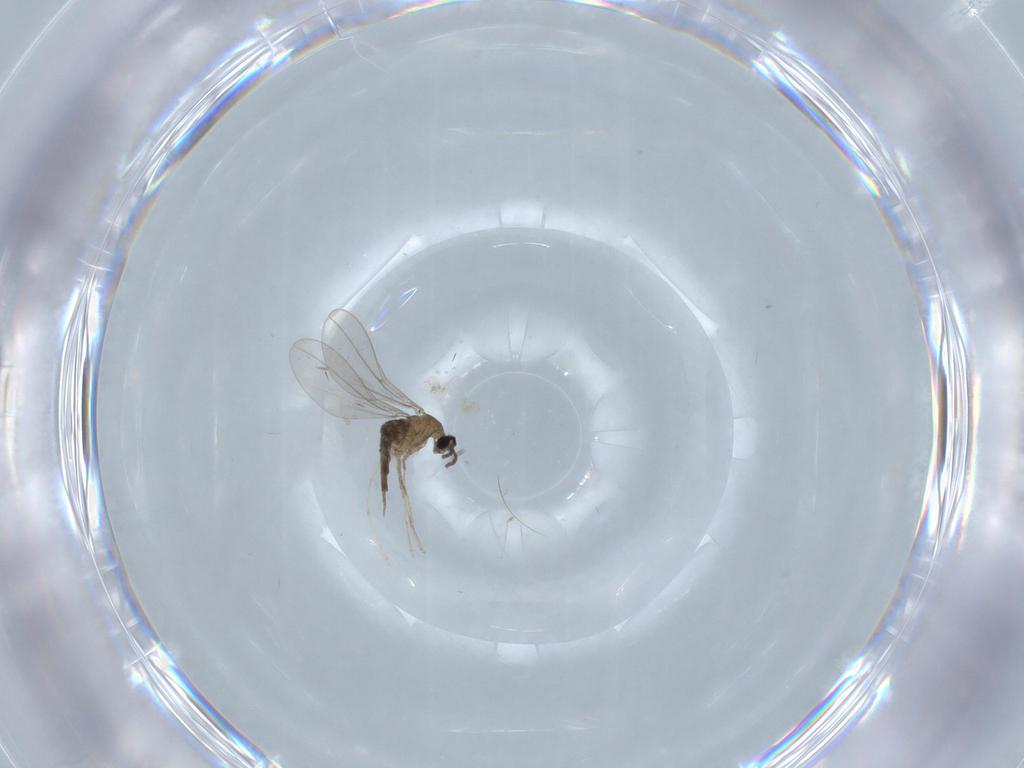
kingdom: Animalia
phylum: Arthropoda
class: Insecta
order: Diptera
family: Cecidomyiidae
